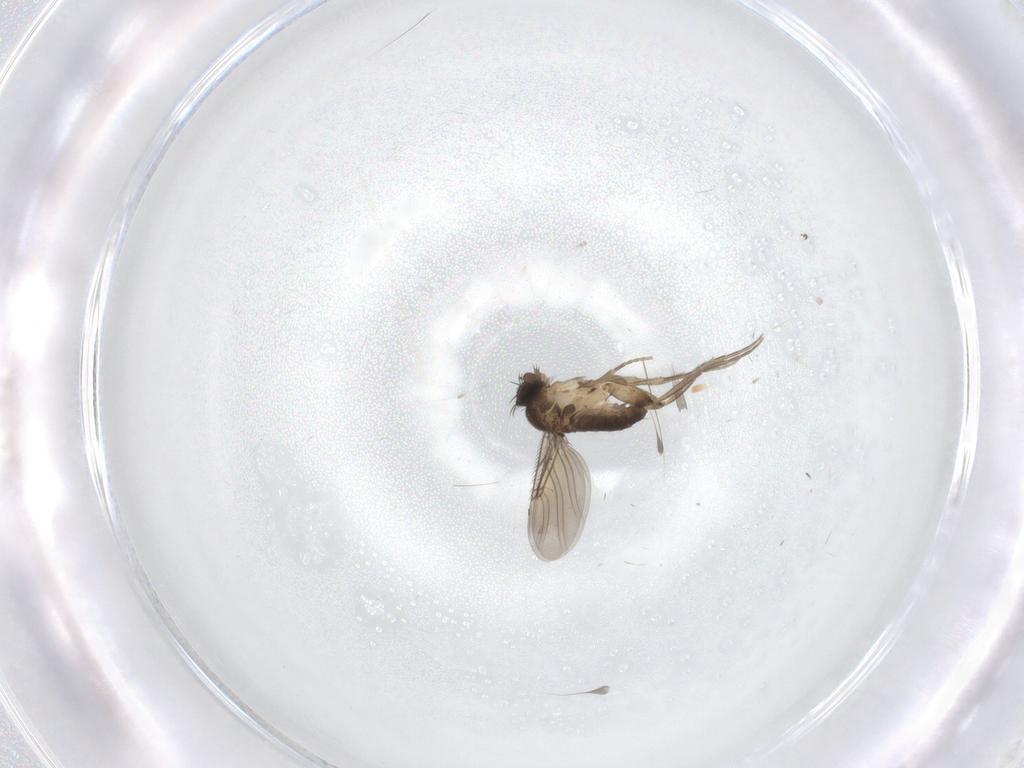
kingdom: Animalia
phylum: Arthropoda
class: Insecta
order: Diptera
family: Phoridae
